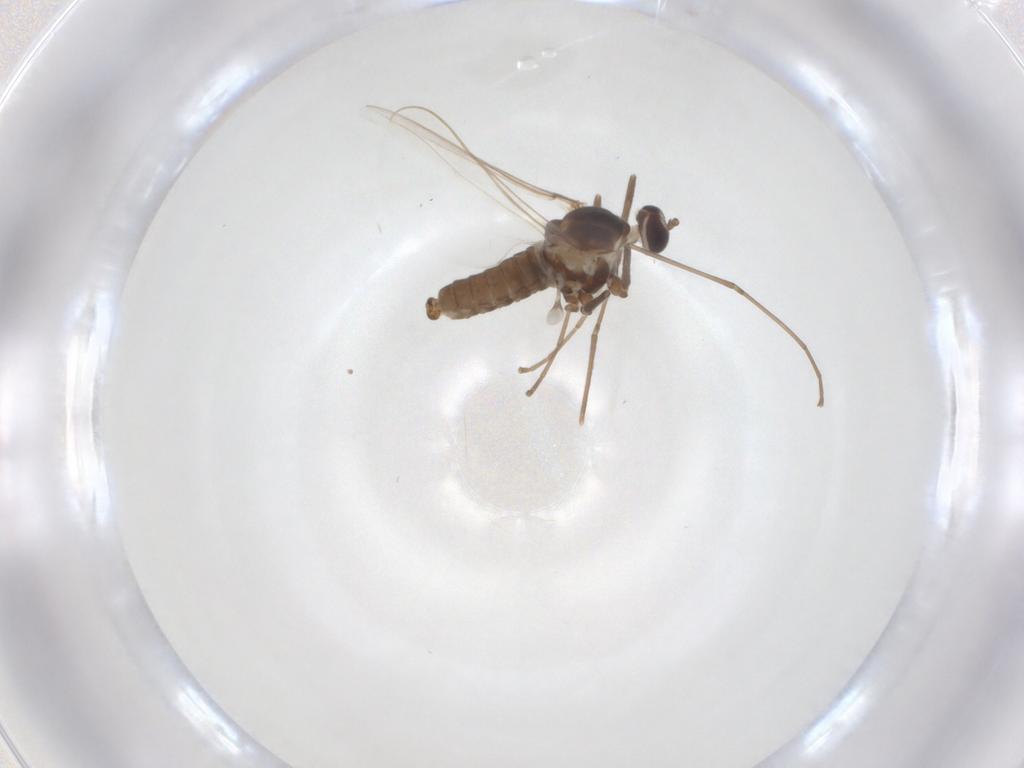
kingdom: Animalia
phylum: Arthropoda
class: Insecta
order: Diptera
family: Cecidomyiidae
